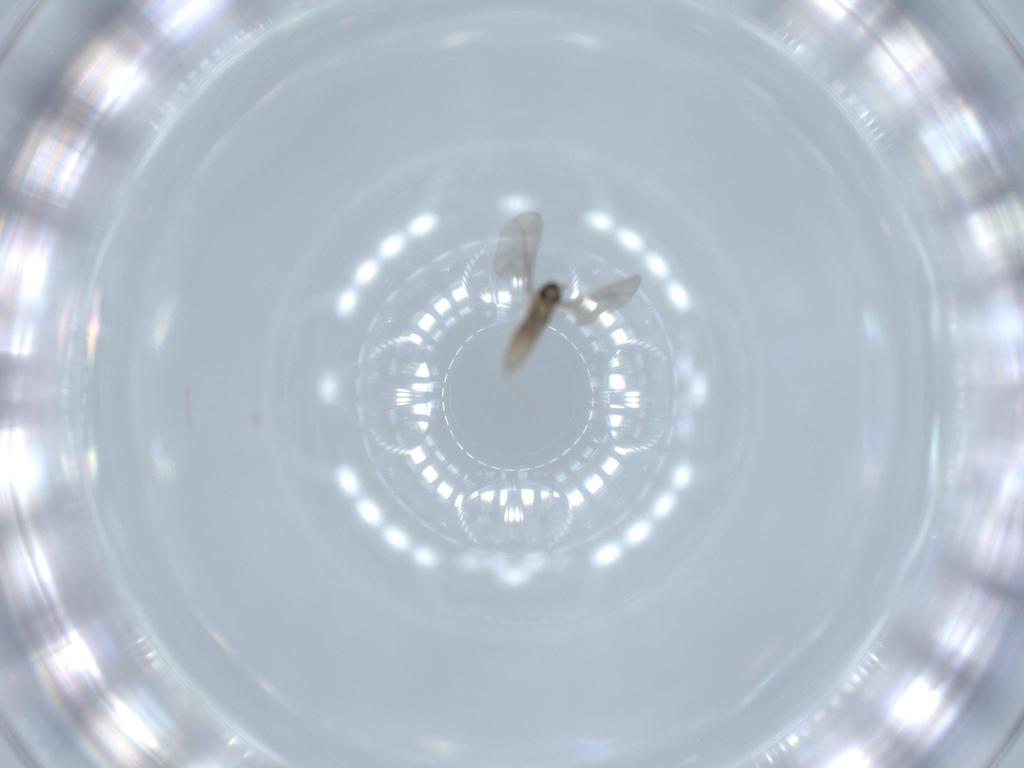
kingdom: Animalia
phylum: Arthropoda
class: Insecta
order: Diptera
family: Cecidomyiidae
